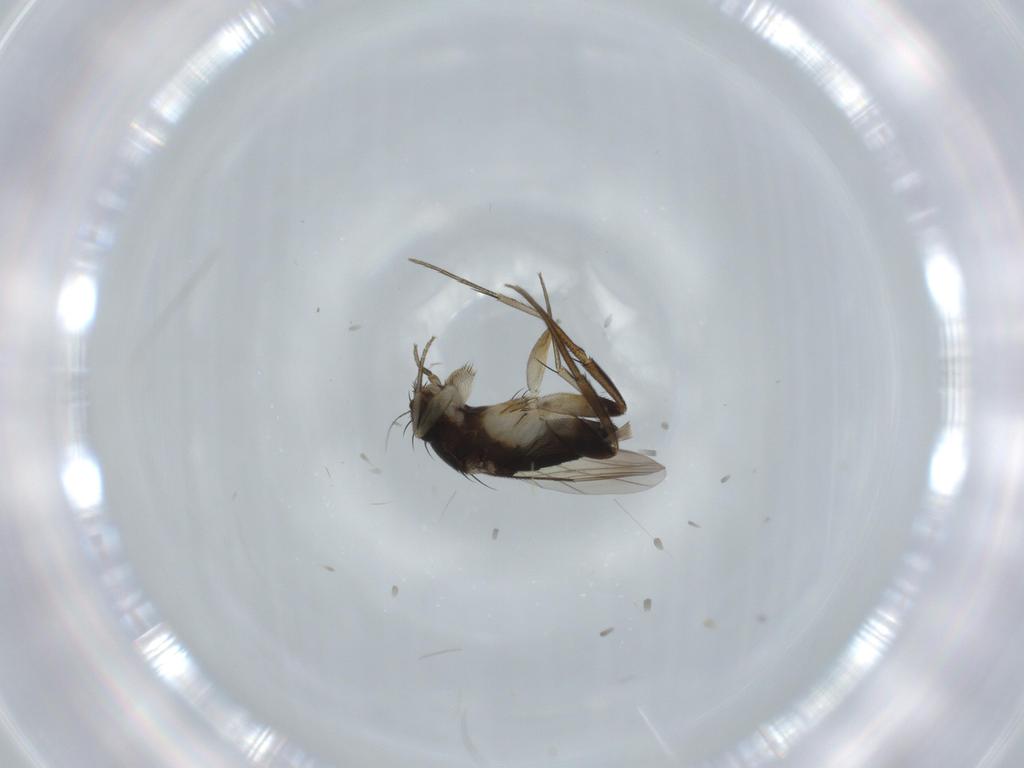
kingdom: Animalia
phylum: Arthropoda
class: Insecta
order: Diptera
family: Phoridae
